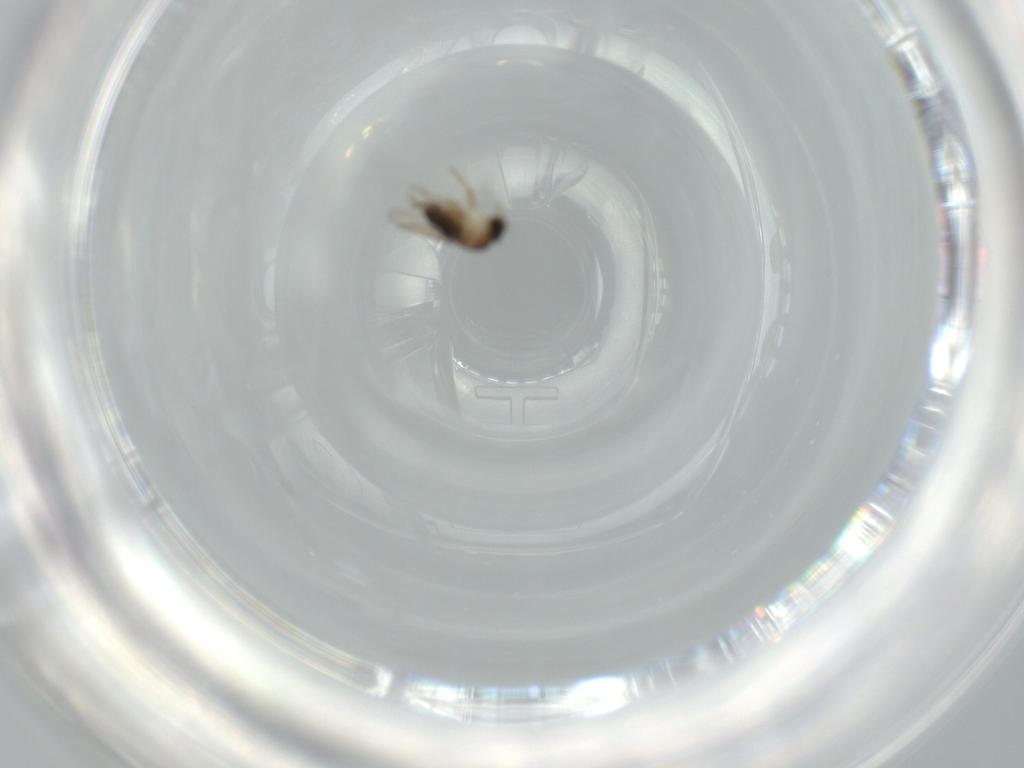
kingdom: Animalia
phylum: Arthropoda
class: Insecta
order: Diptera
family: Phoridae
